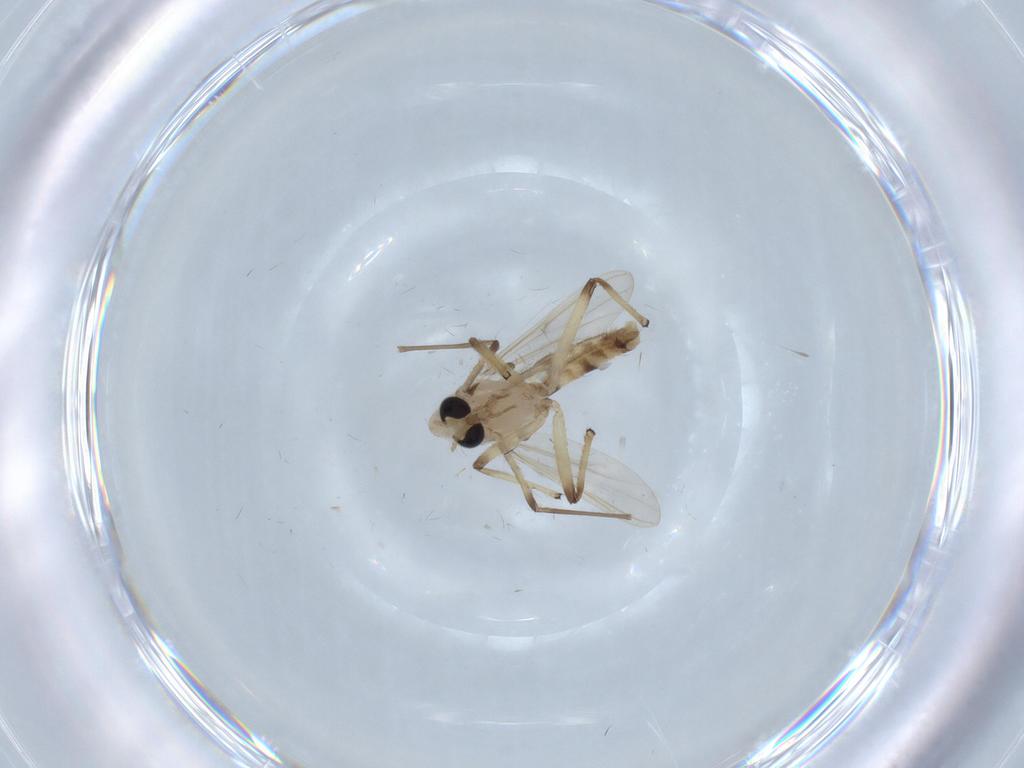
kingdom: Animalia
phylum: Arthropoda
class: Insecta
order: Diptera
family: Chironomidae
